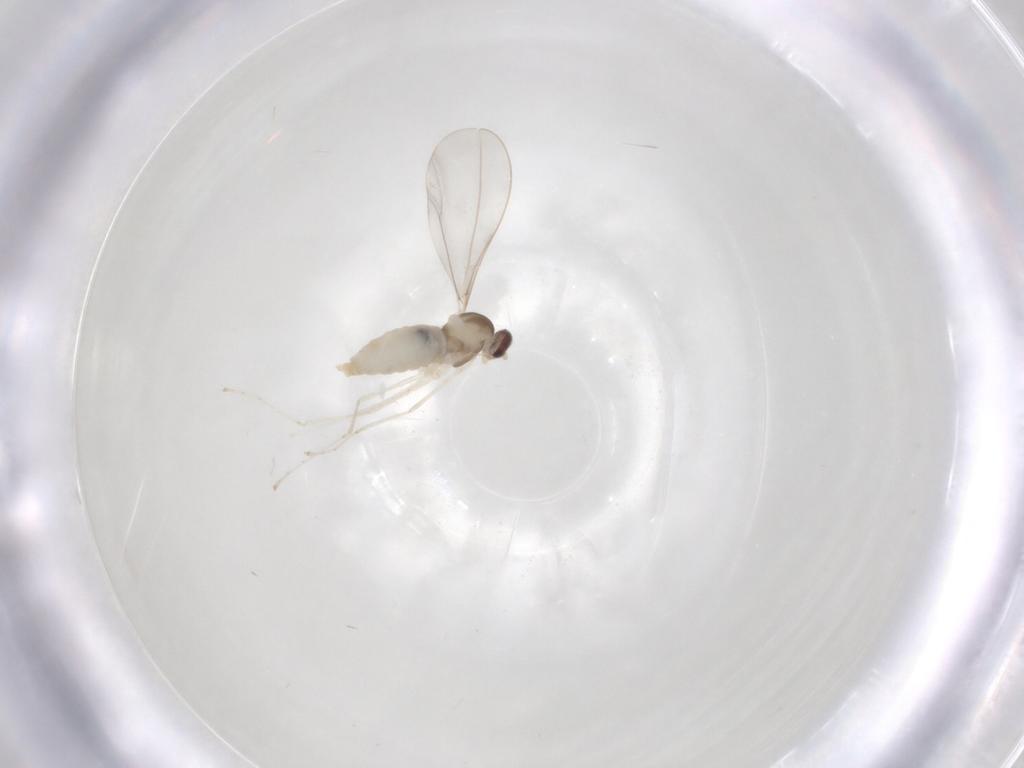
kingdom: Animalia
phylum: Arthropoda
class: Insecta
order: Diptera
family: Cecidomyiidae
